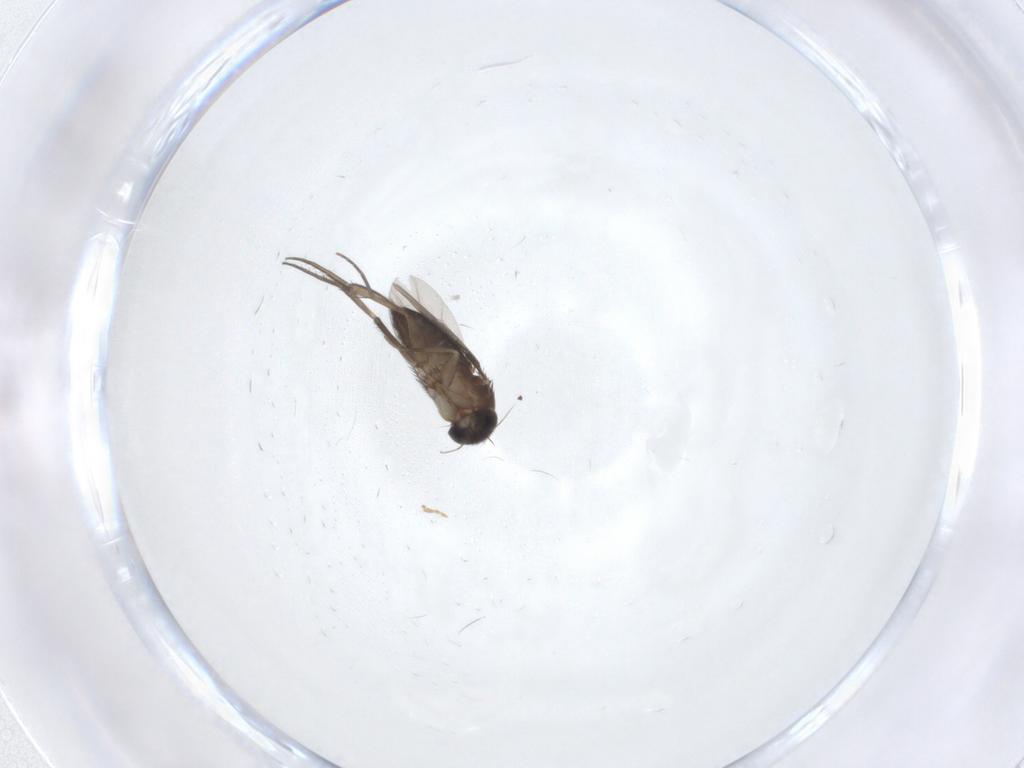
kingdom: Animalia
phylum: Arthropoda
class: Insecta
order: Diptera
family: Phoridae
